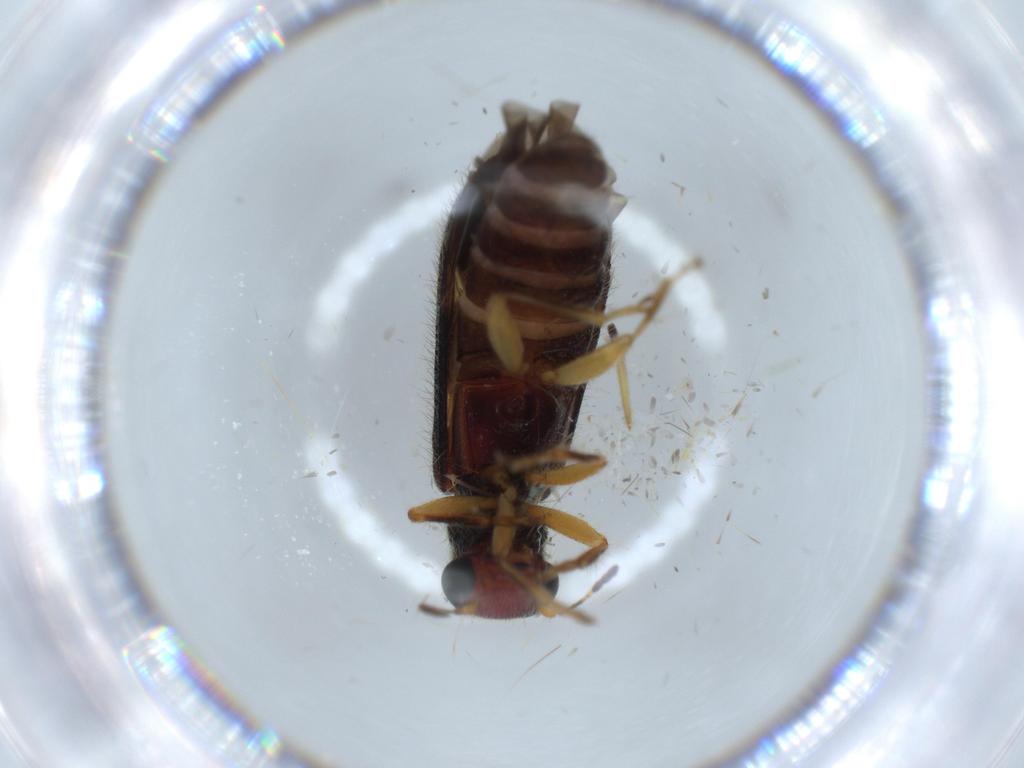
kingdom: Animalia
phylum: Arthropoda
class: Insecta
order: Coleoptera
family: Cleridae
